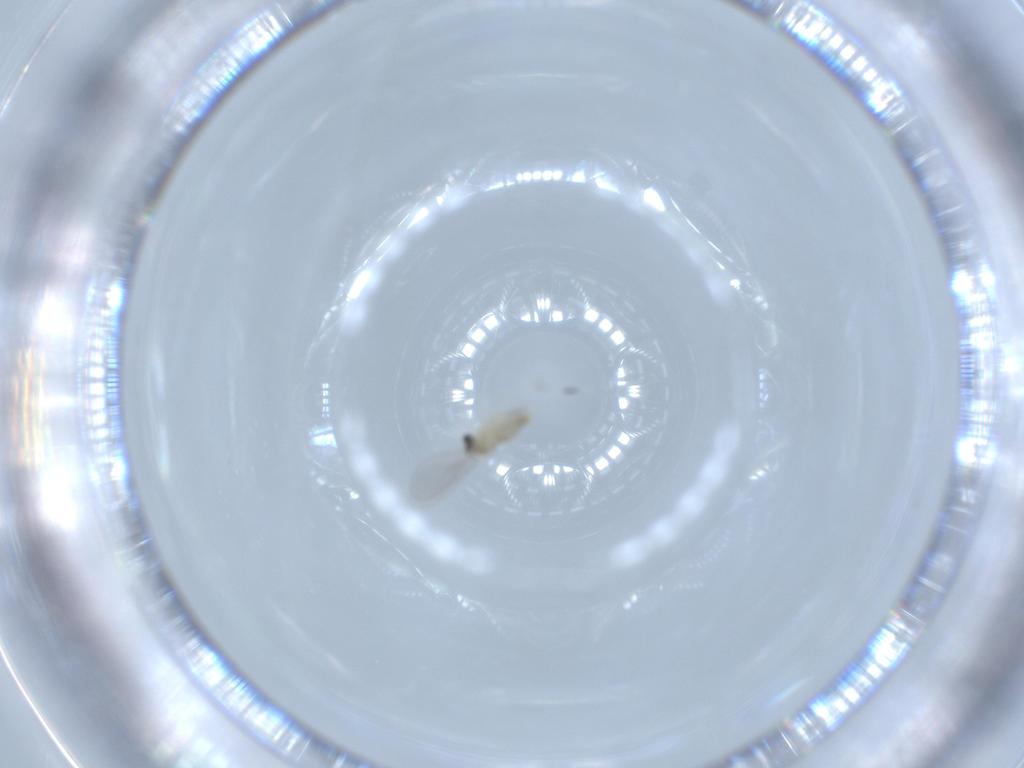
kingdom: Animalia
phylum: Arthropoda
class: Insecta
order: Diptera
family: Cecidomyiidae
